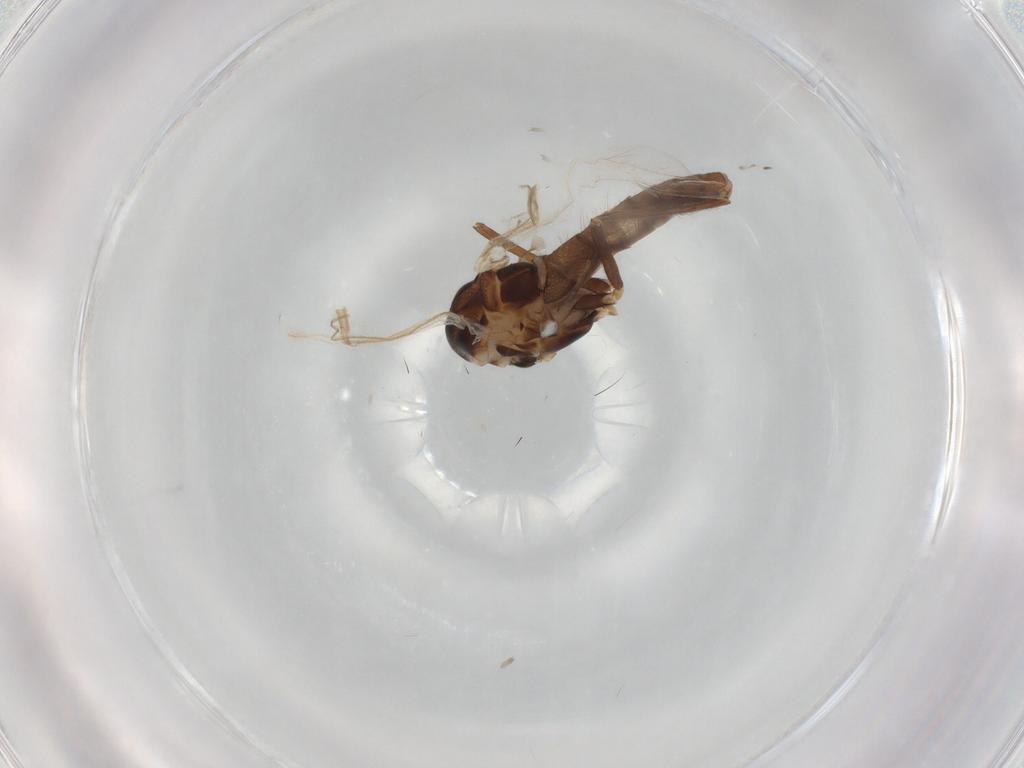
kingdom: Animalia
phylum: Arthropoda
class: Insecta
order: Diptera
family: Chironomidae
